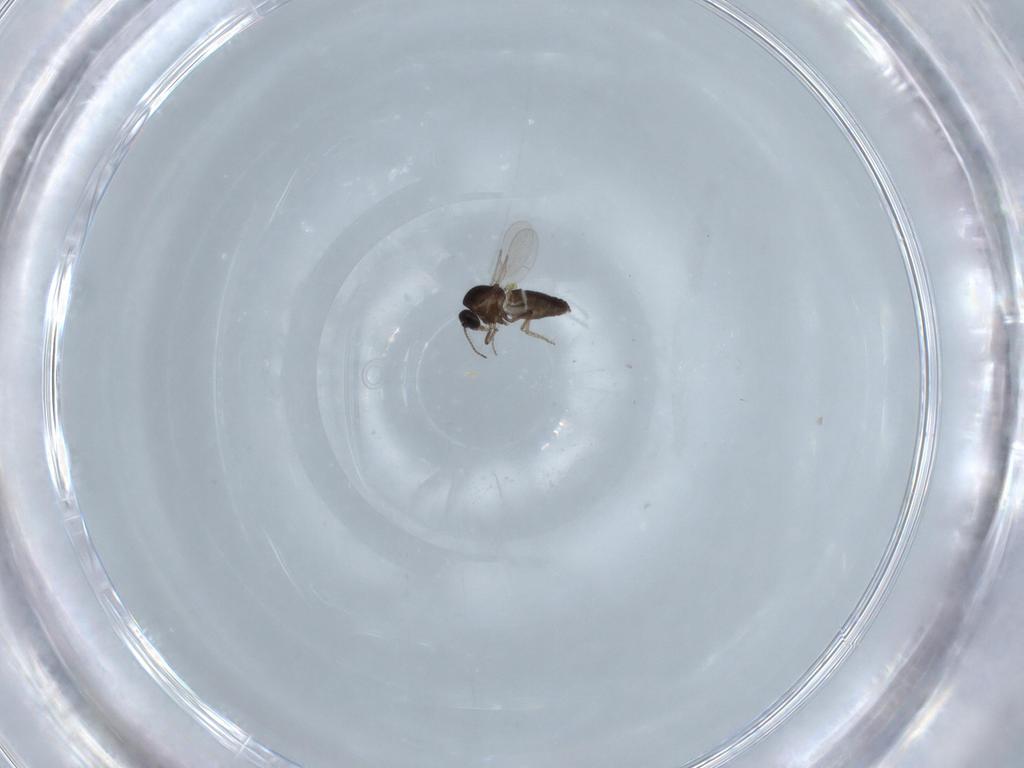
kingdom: Animalia
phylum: Arthropoda
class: Insecta
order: Diptera
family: Chironomidae
